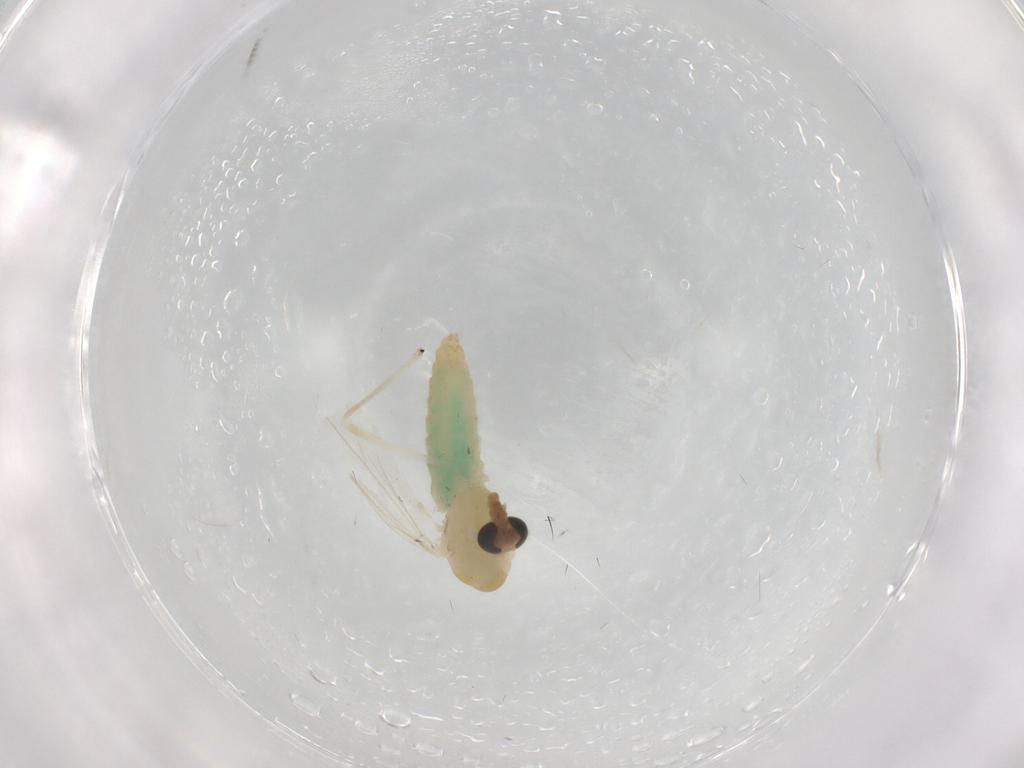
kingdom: Animalia
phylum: Arthropoda
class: Insecta
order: Diptera
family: Chironomidae
